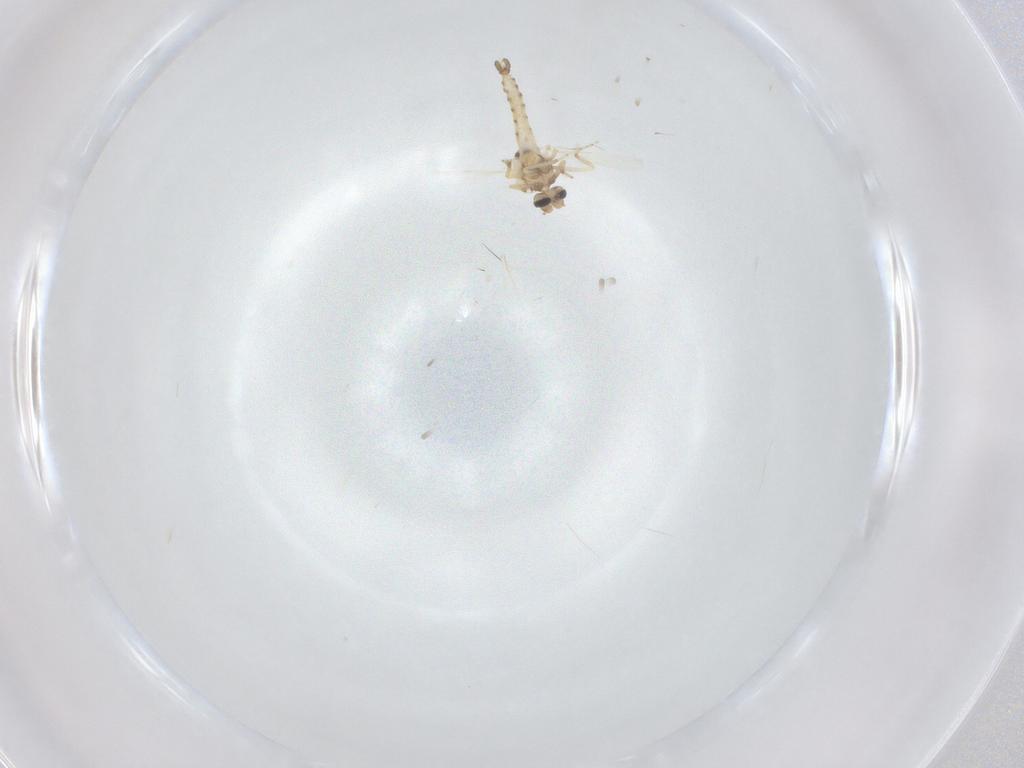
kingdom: Animalia
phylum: Arthropoda
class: Insecta
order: Diptera
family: Ceratopogonidae
